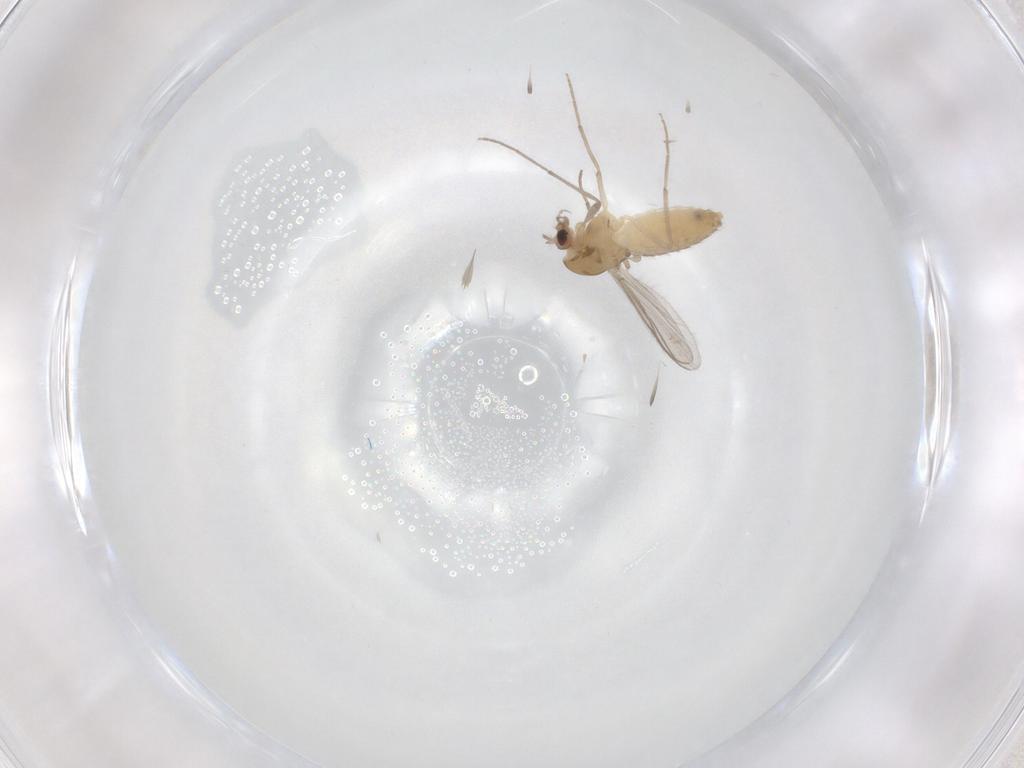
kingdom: Animalia
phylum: Arthropoda
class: Insecta
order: Diptera
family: Chironomidae
